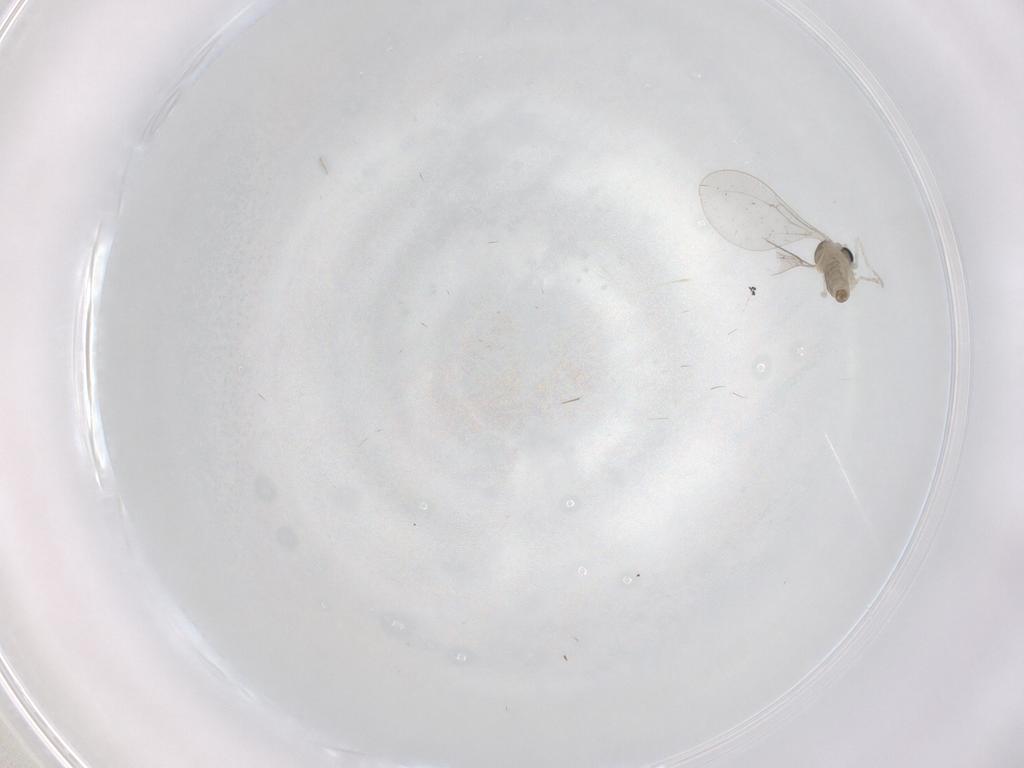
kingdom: Animalia
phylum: Arthropoda
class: Insecta
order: Diptera
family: Cecidomyiidae
